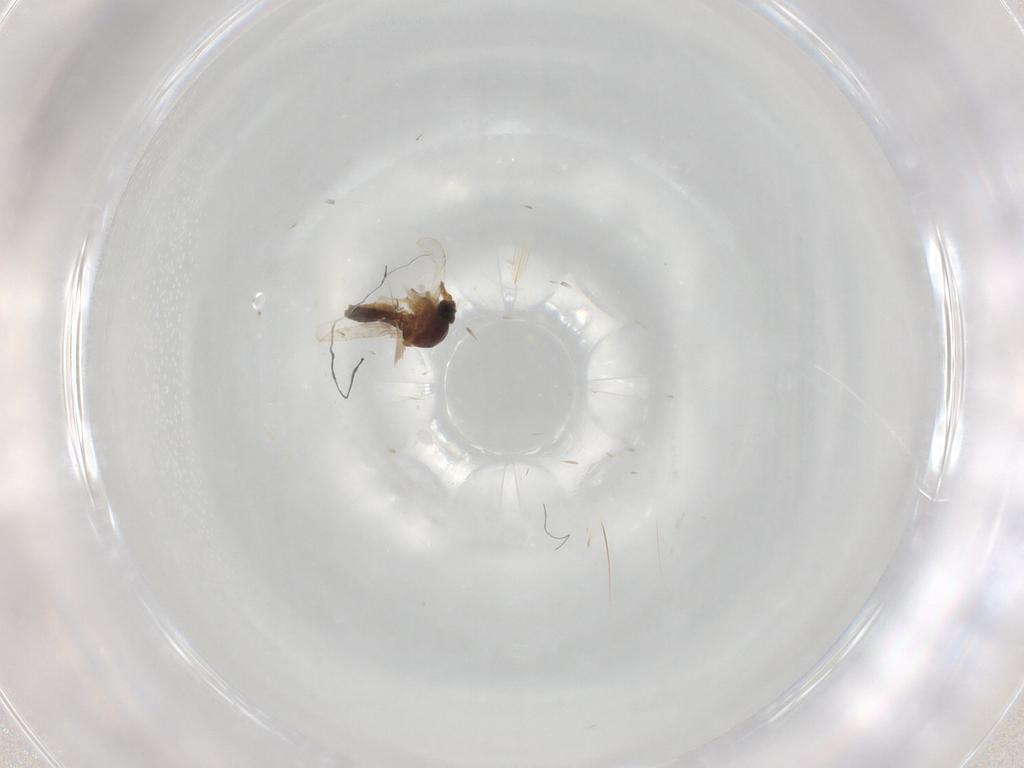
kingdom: Animalia
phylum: Arthropoda
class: Insecta
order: Diptera
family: Ceratopogonidae
